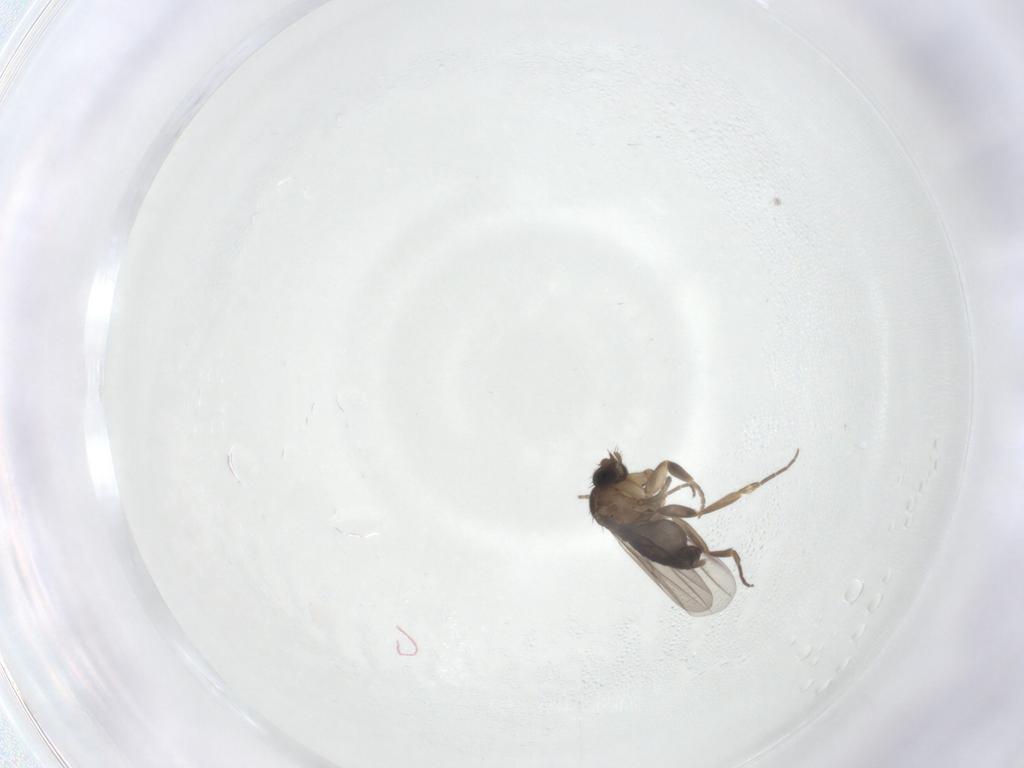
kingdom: Animalia
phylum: Arthropoda
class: Insecta
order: Diptera
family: Phoridae
